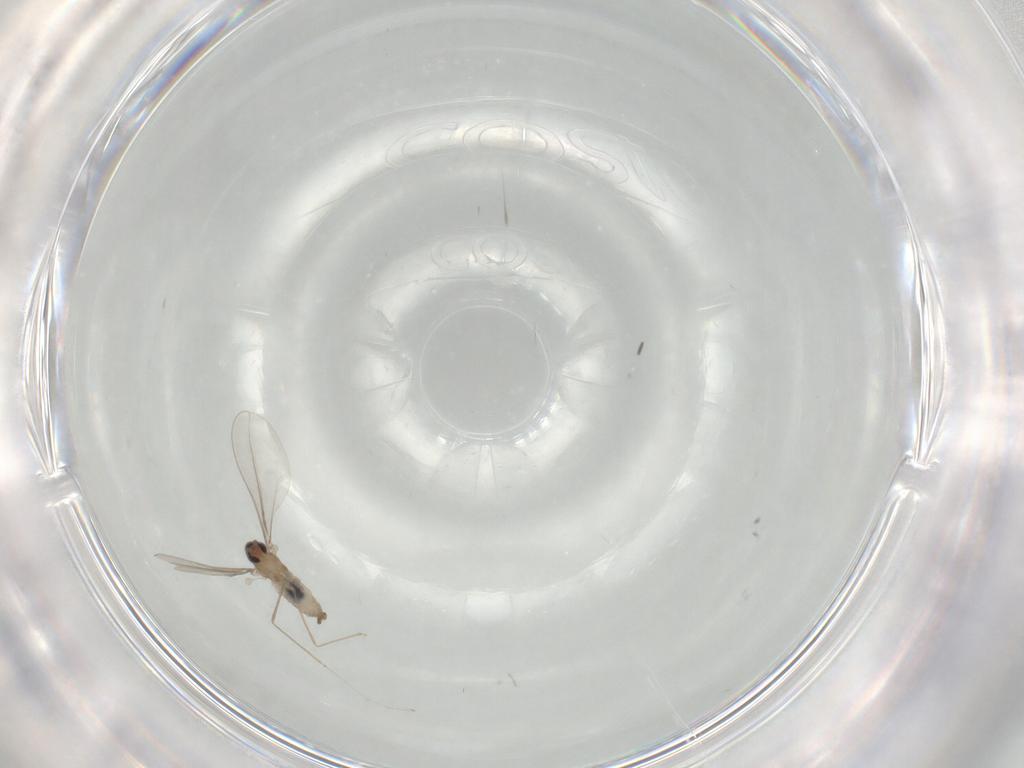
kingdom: Animalia
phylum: Arthropoda
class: Insecta
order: Diptera
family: Cecidomyiidae
